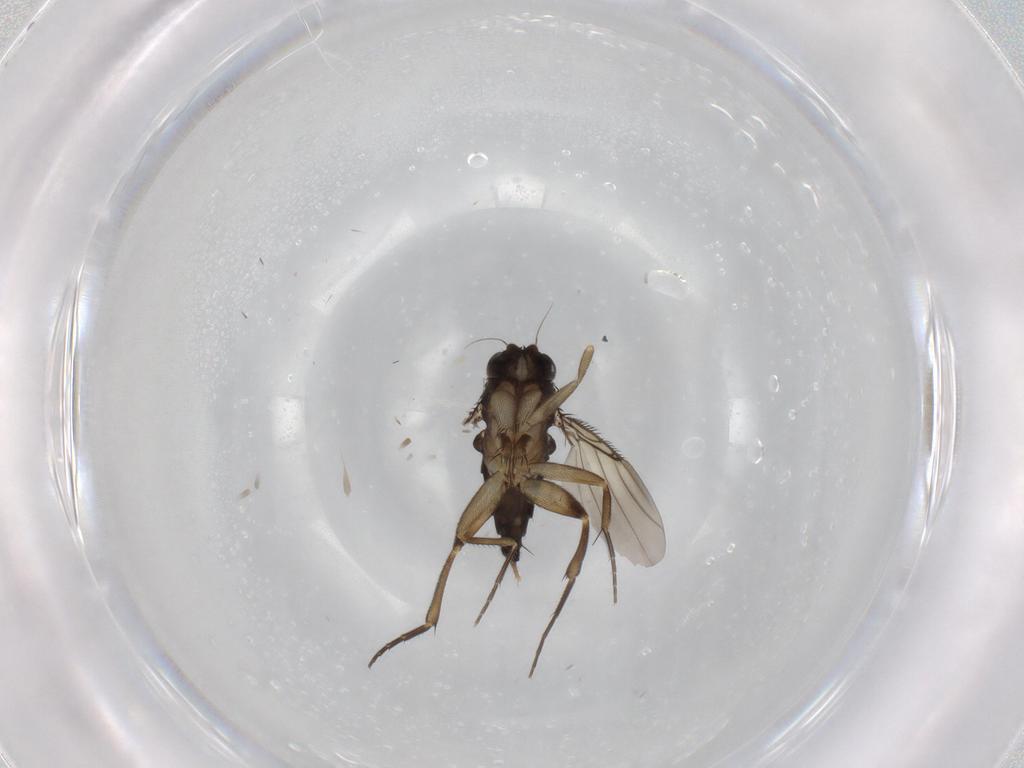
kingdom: Animalia
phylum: Arthropoda
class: Insecta
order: Diptera
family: Phoridae
